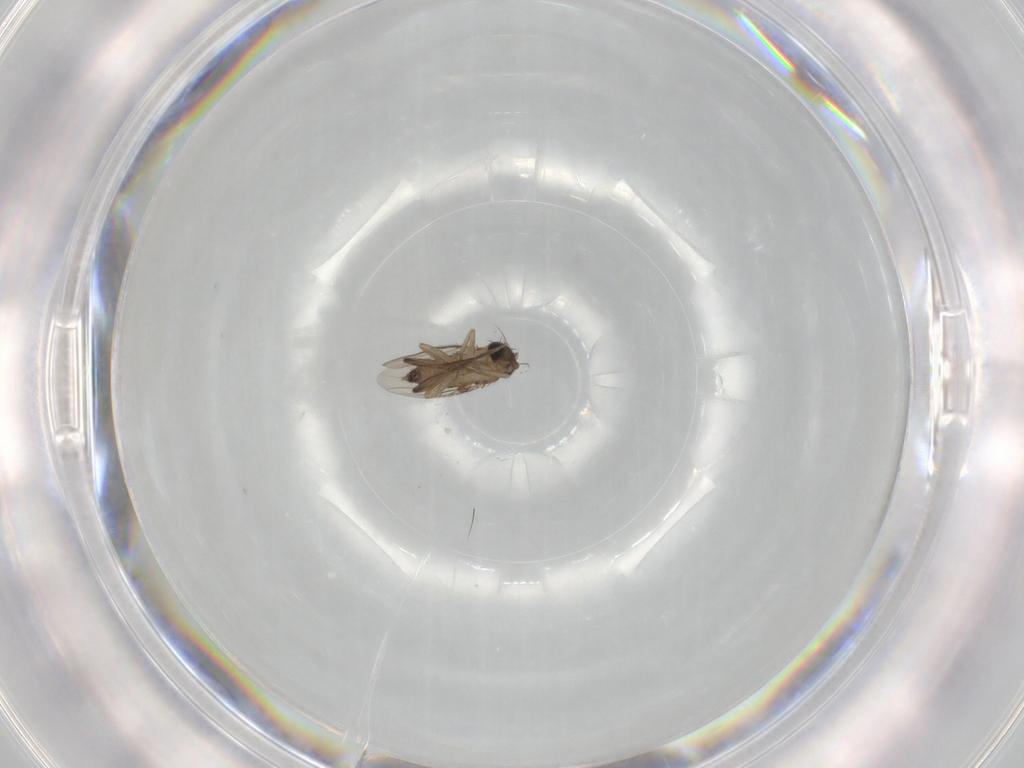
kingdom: Animalia
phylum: Arthropoda
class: Insecta
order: Diptera
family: Phoridae
